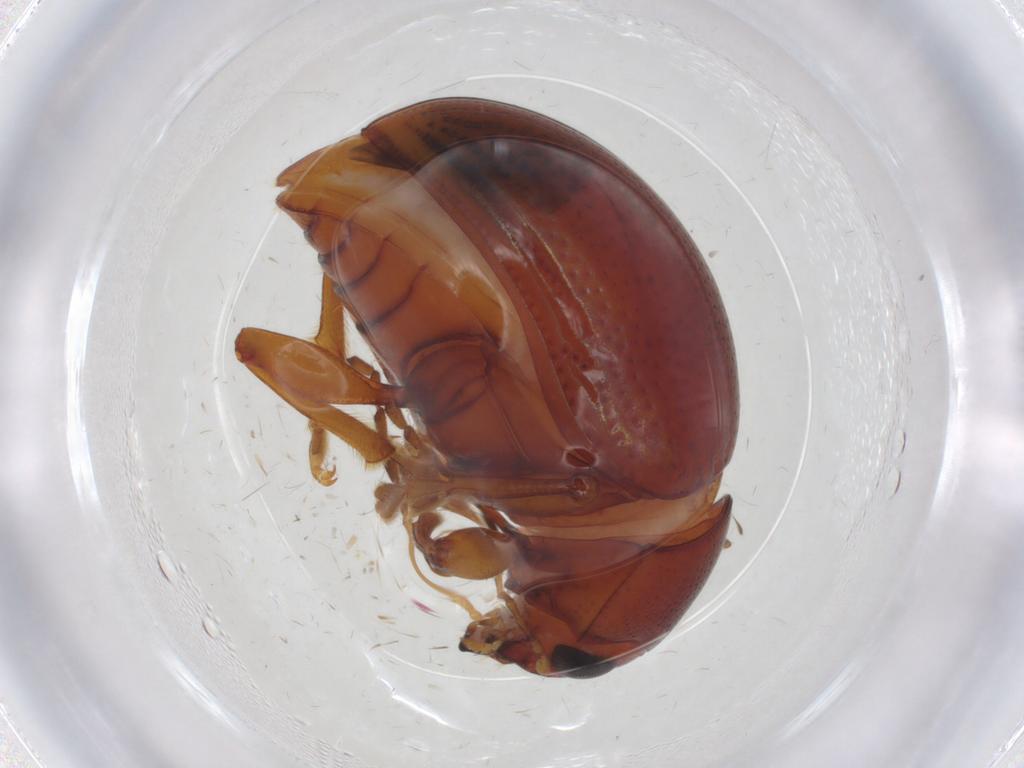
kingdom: Animalia
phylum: Arthropoda
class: Insecta
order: Coleoptera
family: Chrysomelidae
